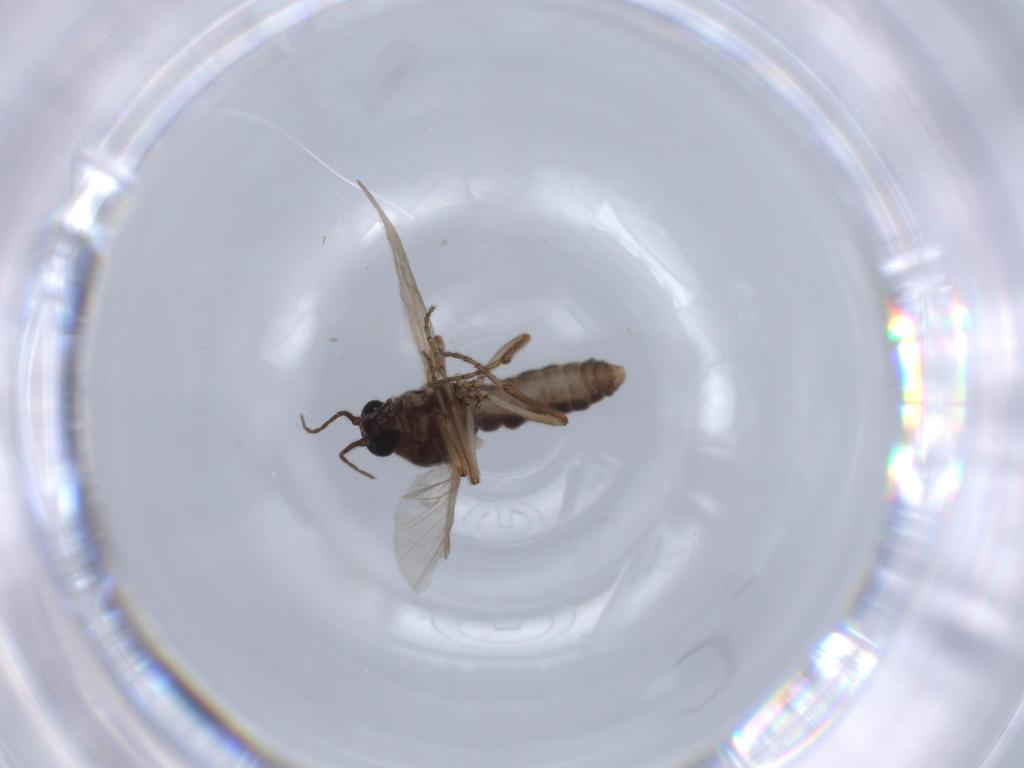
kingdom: Animalia
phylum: Arthropoda
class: Insecta
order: Diptera
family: Ceratopogonidae
